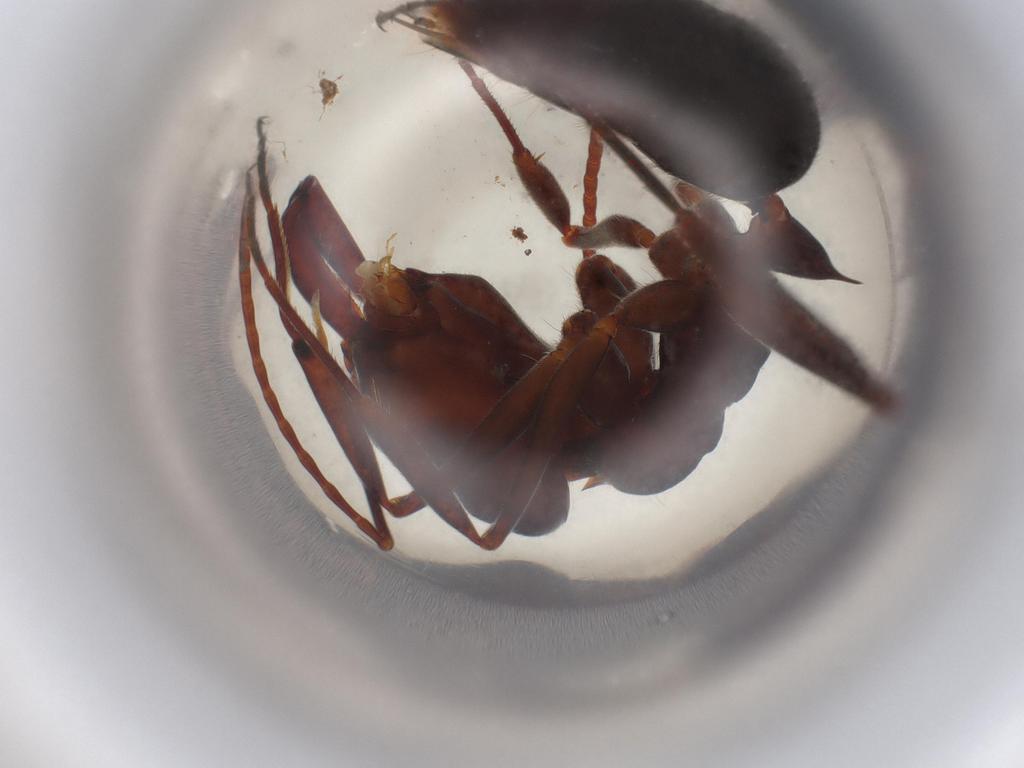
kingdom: Animalia
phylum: Arthropoda
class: Insecta
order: Hymenoptera
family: Formicidae
